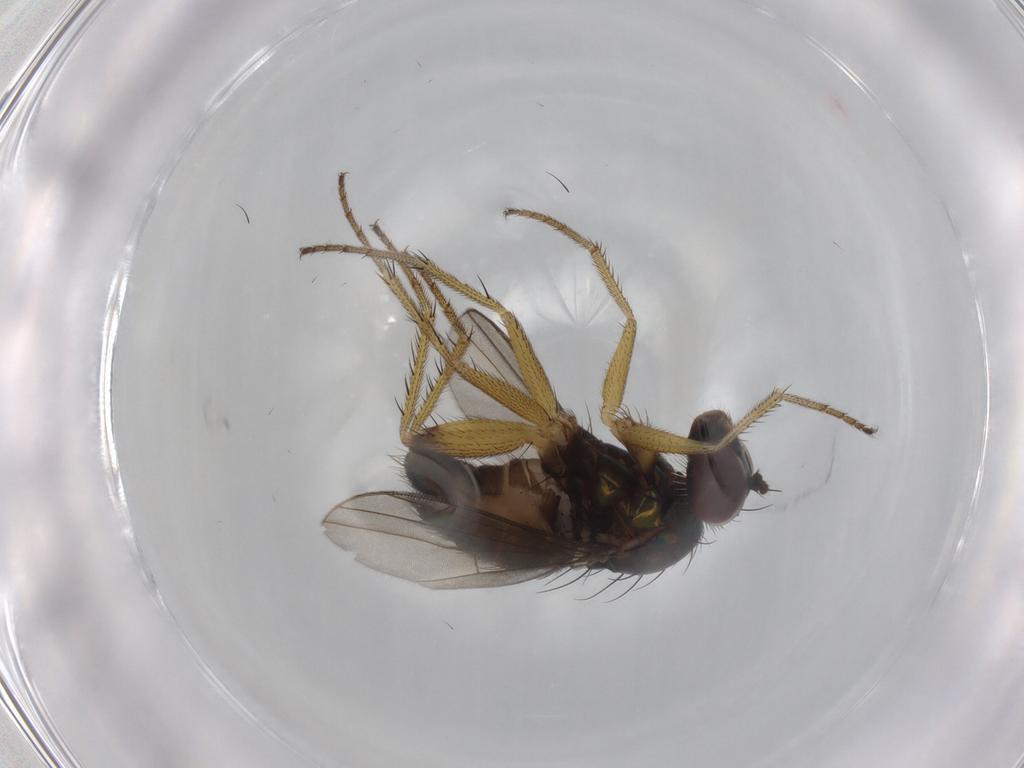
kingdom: Animalia
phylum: Arthropoda
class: Insecta
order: Diptera
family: Dolichopodidae
